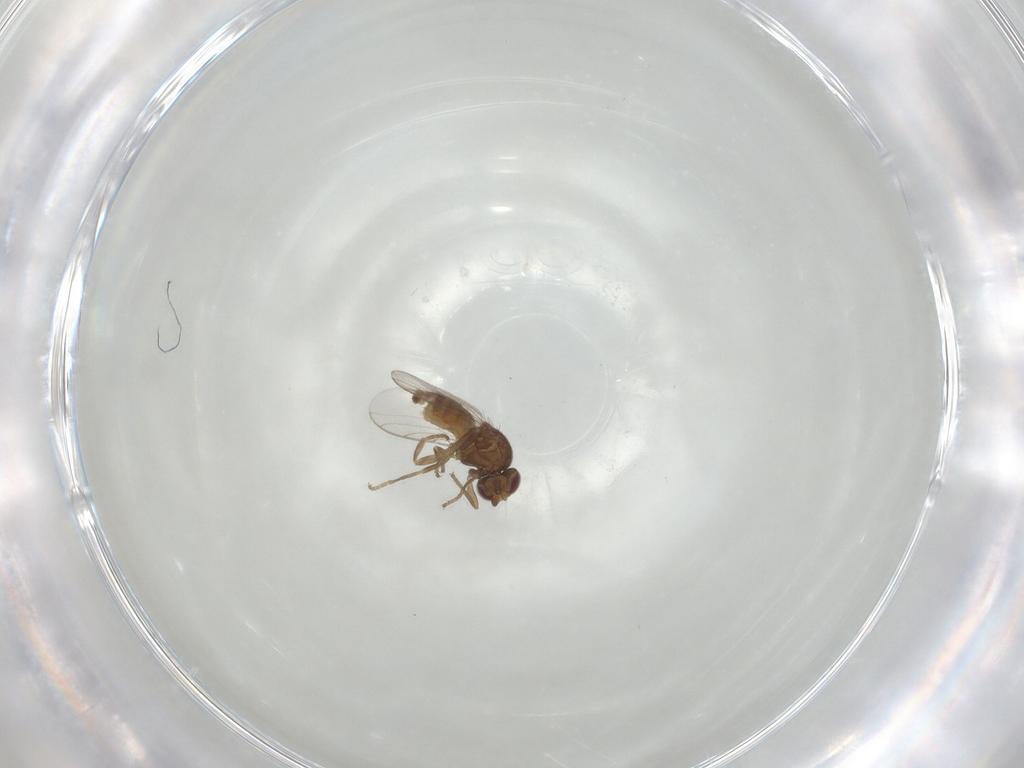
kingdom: Animalia
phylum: Arthropoda
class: Insecta
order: Diptera
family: Chloropidae
